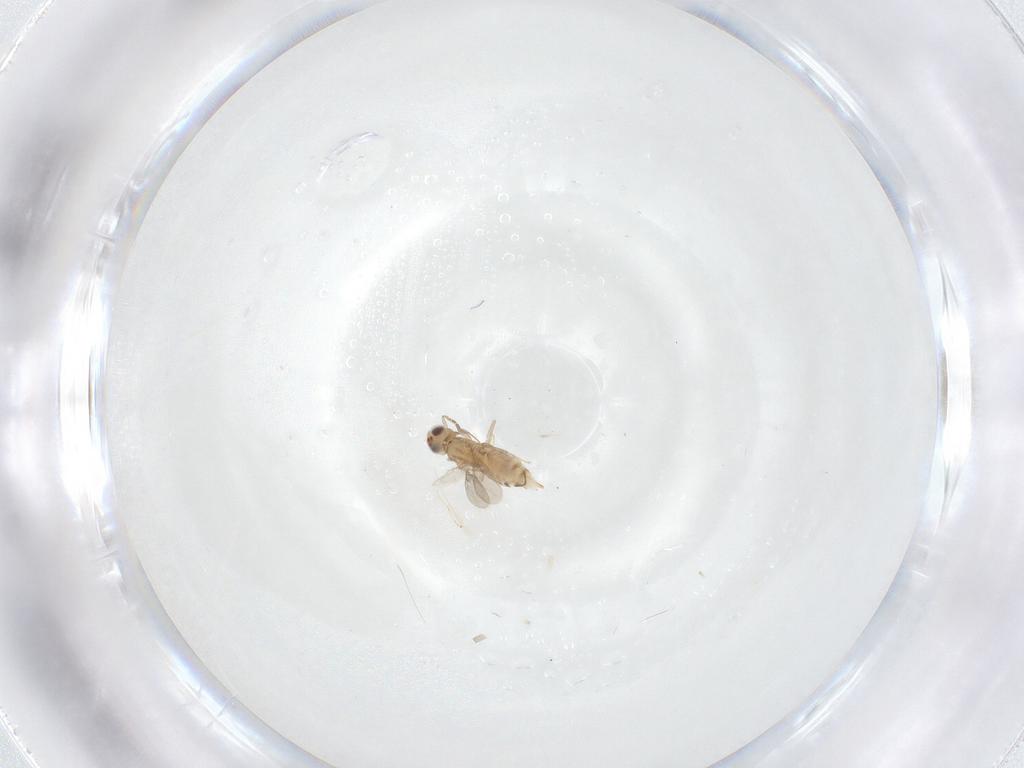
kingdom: Animalia
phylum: Arthropoda
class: Insecta
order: Hymenoptera
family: Aphelinidae
